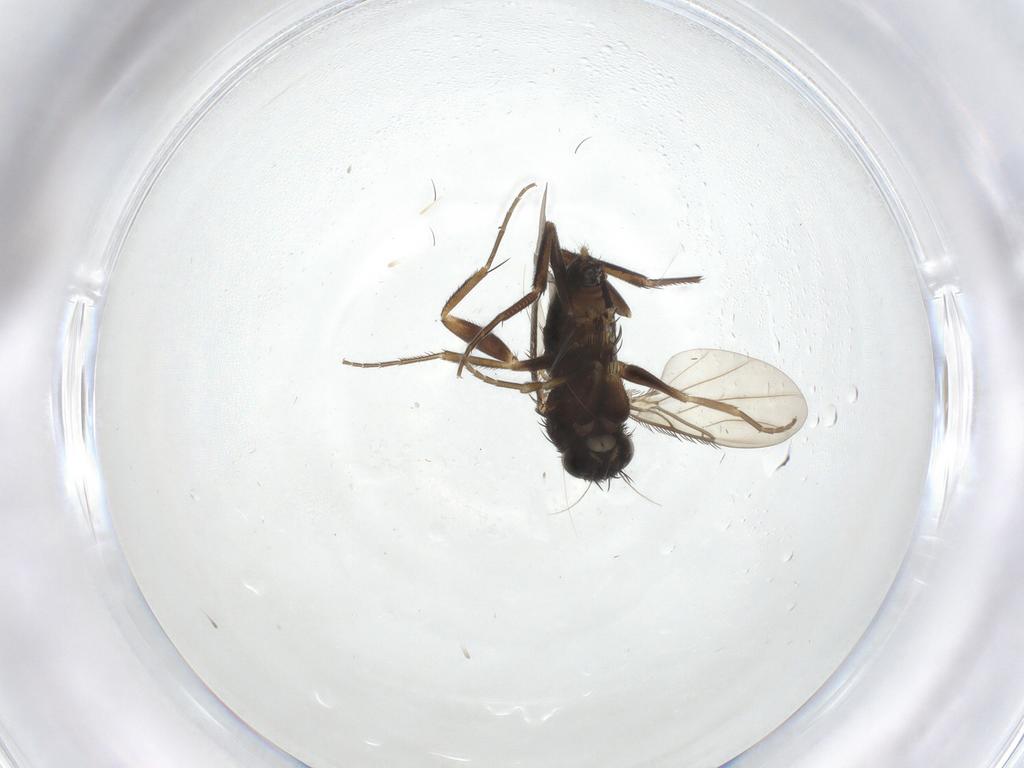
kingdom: Animalia
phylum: Arthropoda
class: Insecta
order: Diptera
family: Phoridae
